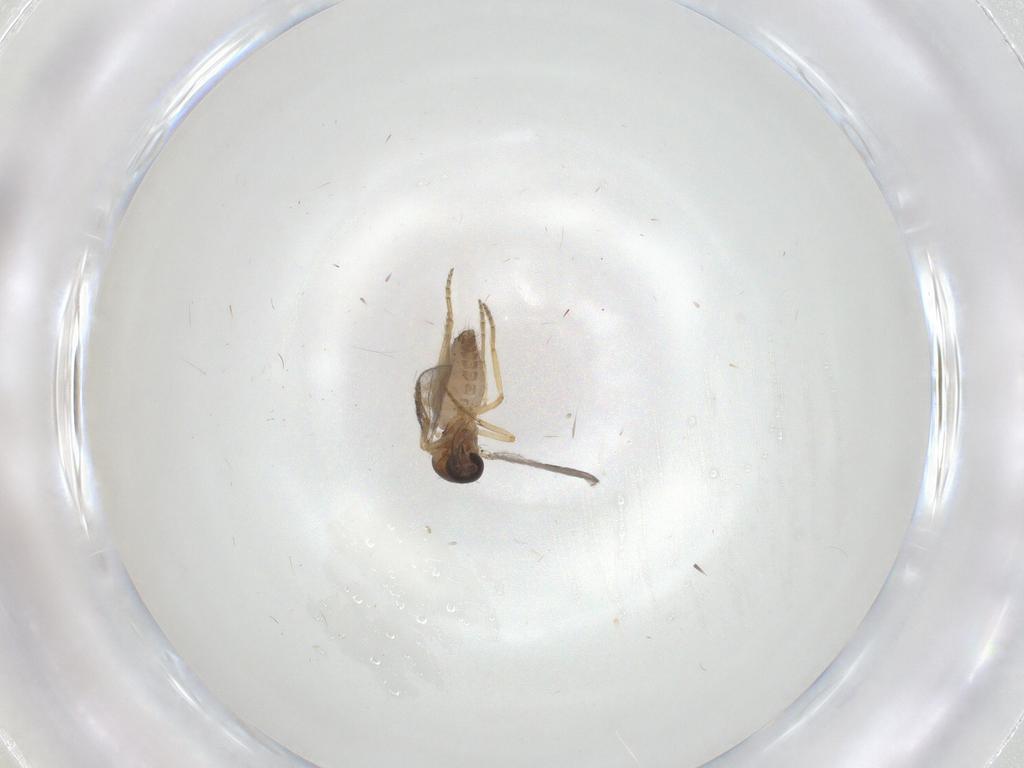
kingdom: Animalia
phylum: Arthropoda
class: Insecta
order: Diptera
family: Ceratopogonidae
